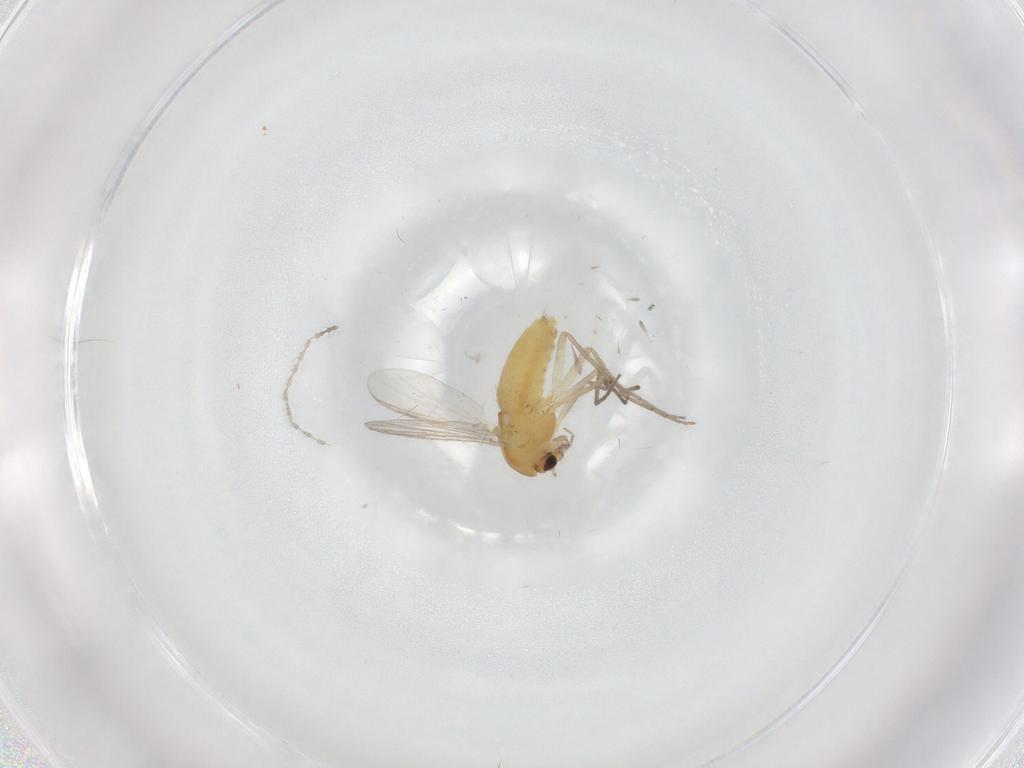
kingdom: Animalia
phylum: Arthropoda
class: Insecta
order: Diptera
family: Chironomidae
